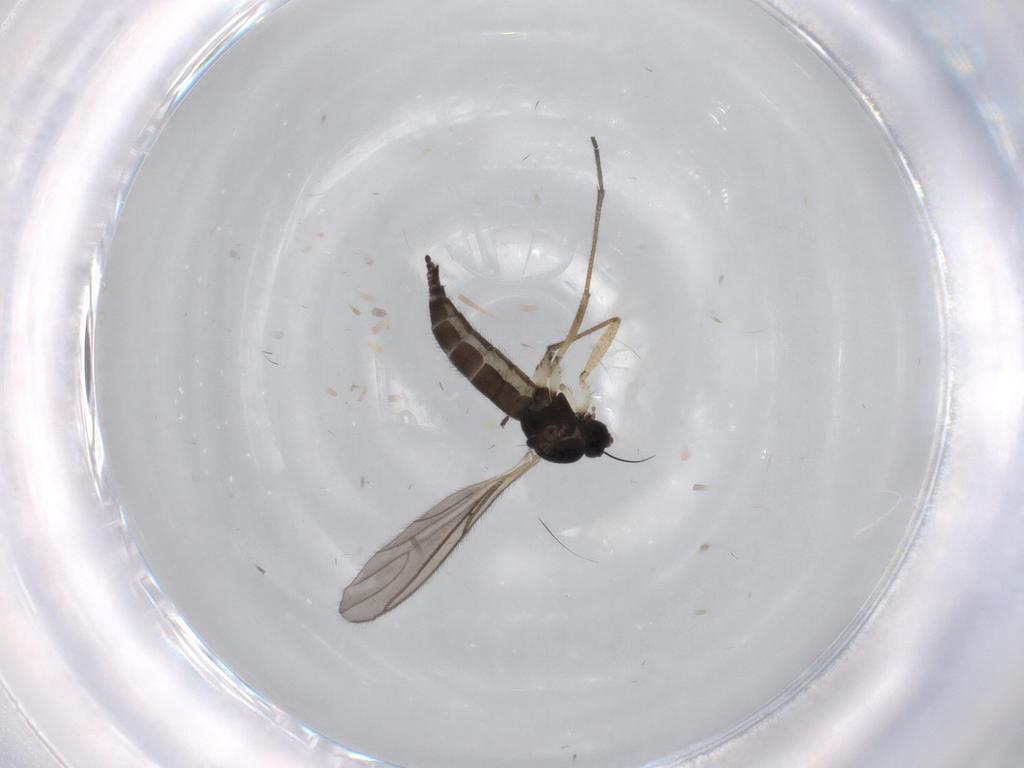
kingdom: Animalia
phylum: Arthropoda
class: Insecta
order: Diptera
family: Sciaridae
